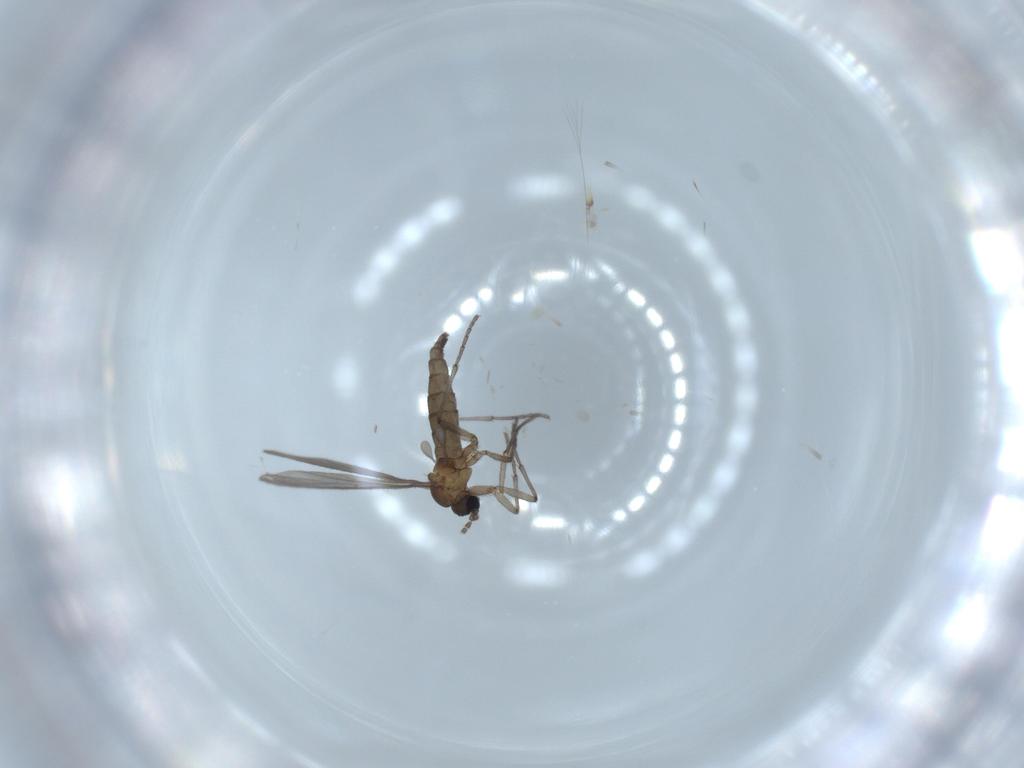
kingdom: Animalia
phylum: Arthropoda
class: Insecta
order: Diptera
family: Sciaridae
